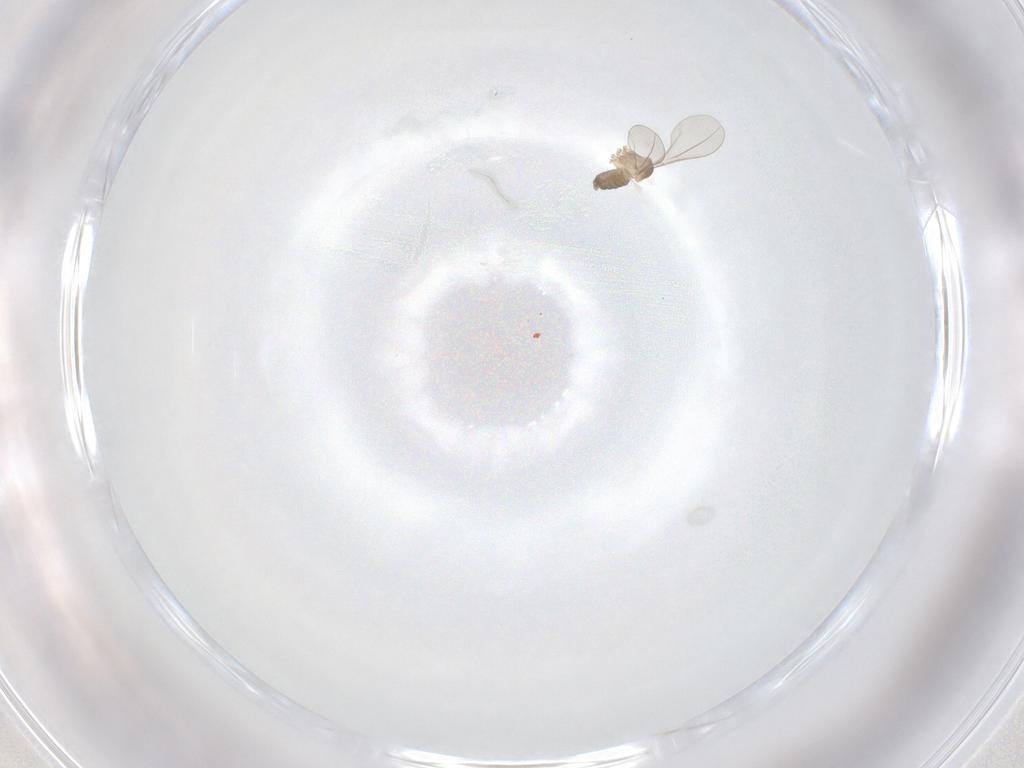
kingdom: Animalia
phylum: Arthropoda
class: Insecta
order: Diptera
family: Cecidomyiidae
